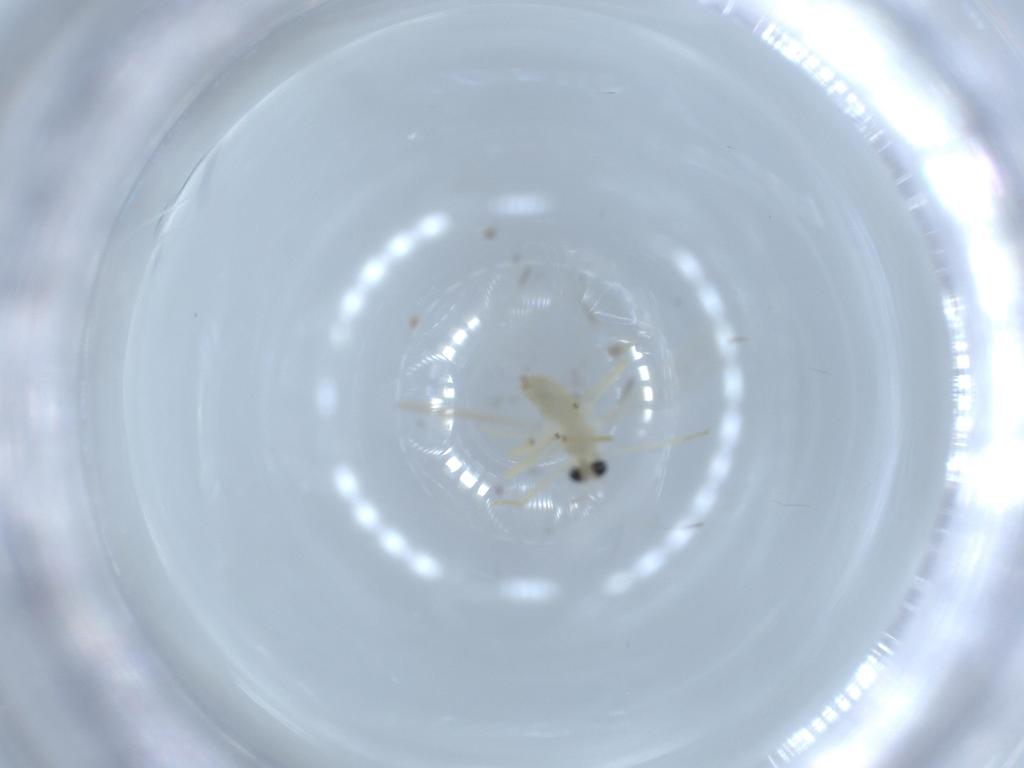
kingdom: Animalia
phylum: Arthropoda
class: Insecta
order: Diptera
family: Chironomidae
